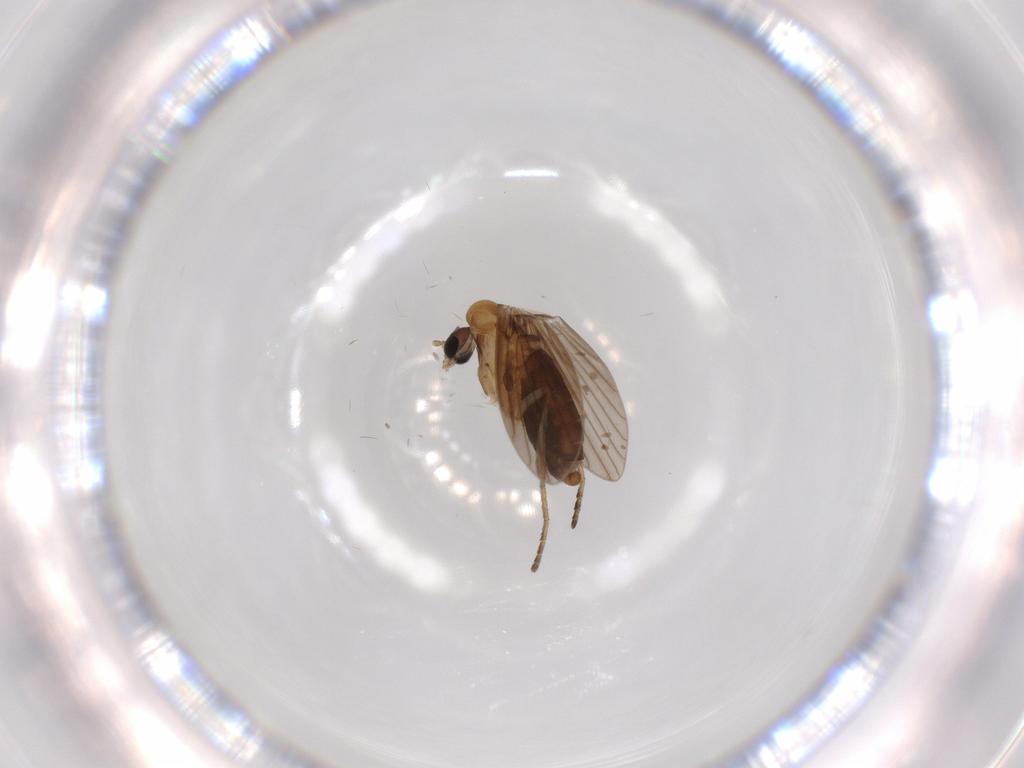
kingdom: Animalia
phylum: Arthropoda
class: Insecta
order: Diptera
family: Psychodidae
